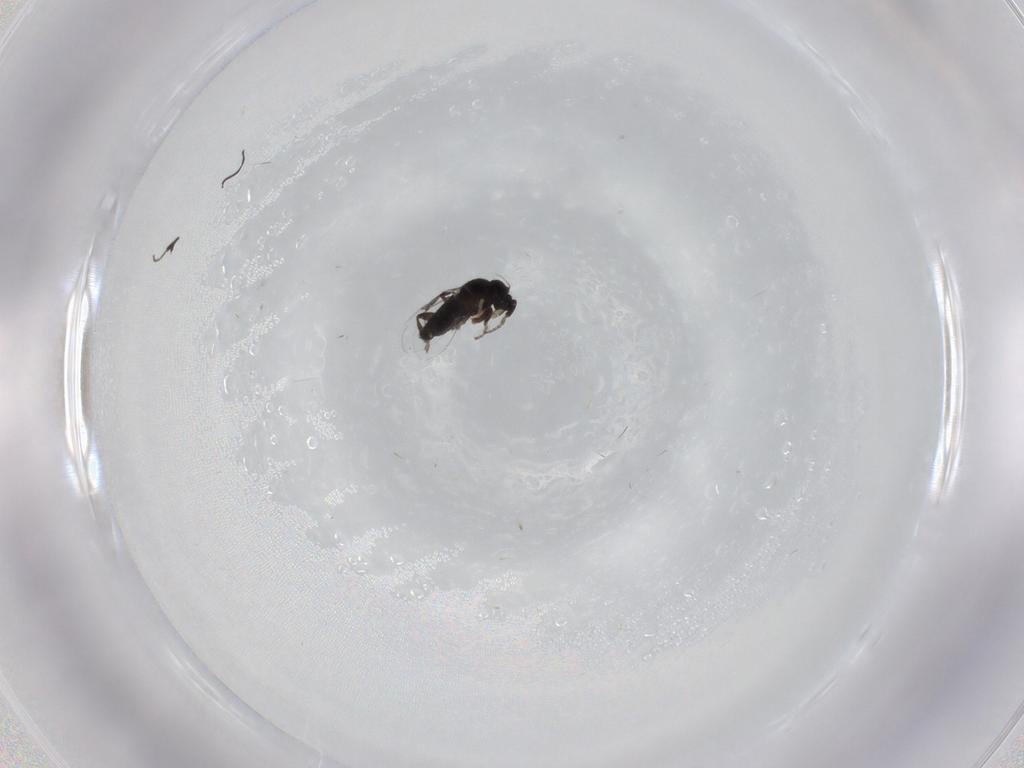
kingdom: Animalia
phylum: Arthropoda
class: Insecta
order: Diptera
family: Phoridae
